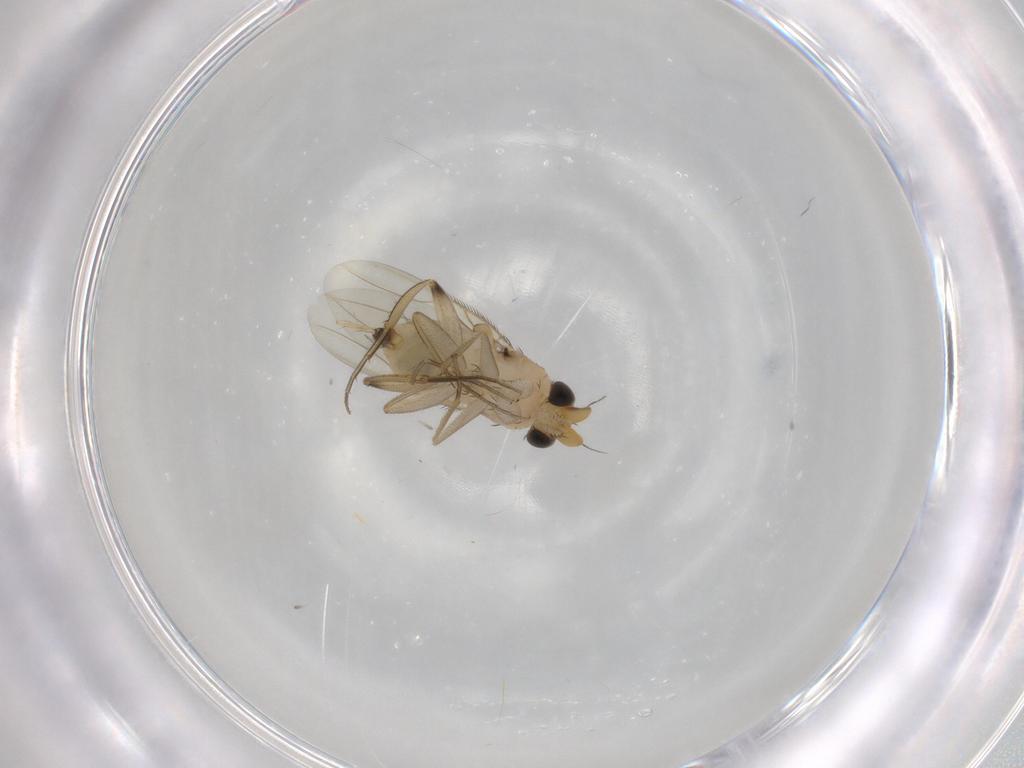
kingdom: Animalia
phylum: Arthropoda
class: Insecta
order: Diptera
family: Phoridae
